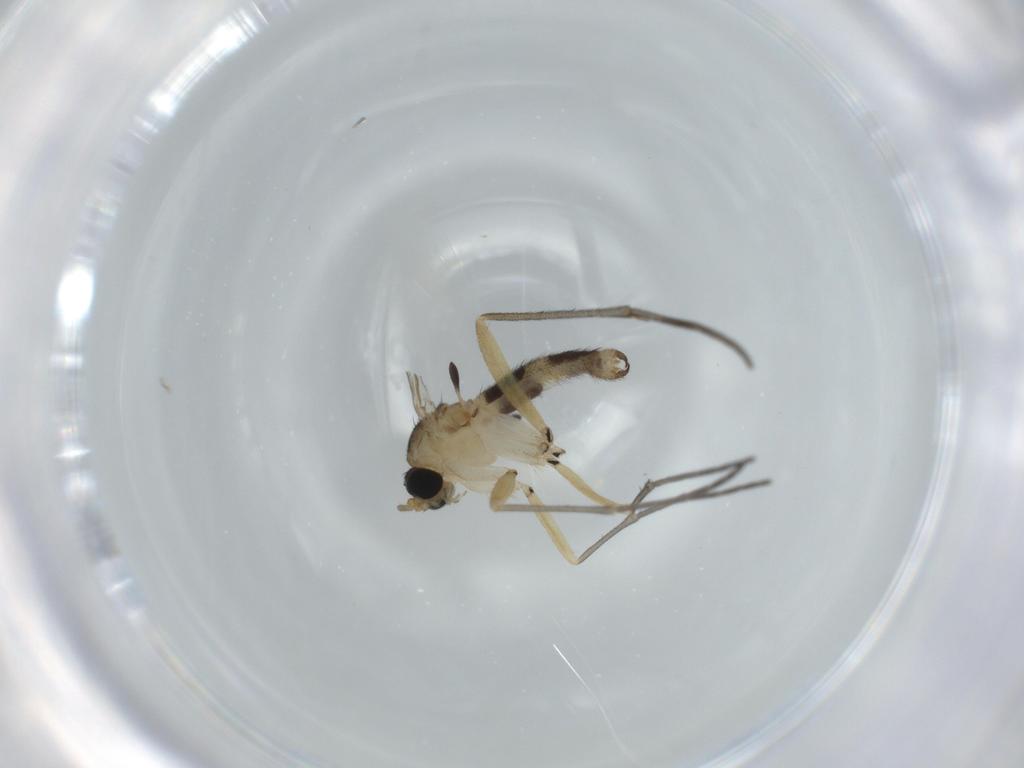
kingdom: Animalia
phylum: Arthropoda
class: Insecta
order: Diptera
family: Sciaridae
